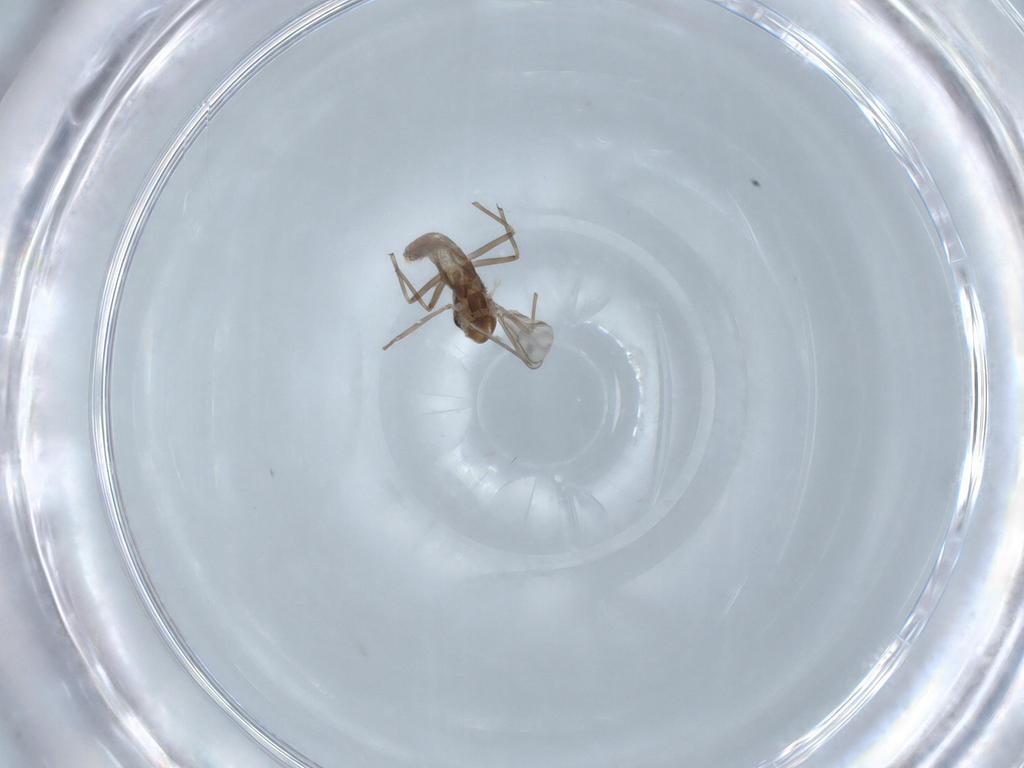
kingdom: Animalia
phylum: Arthropoda
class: Insecta
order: Diptera
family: Chironomidae
